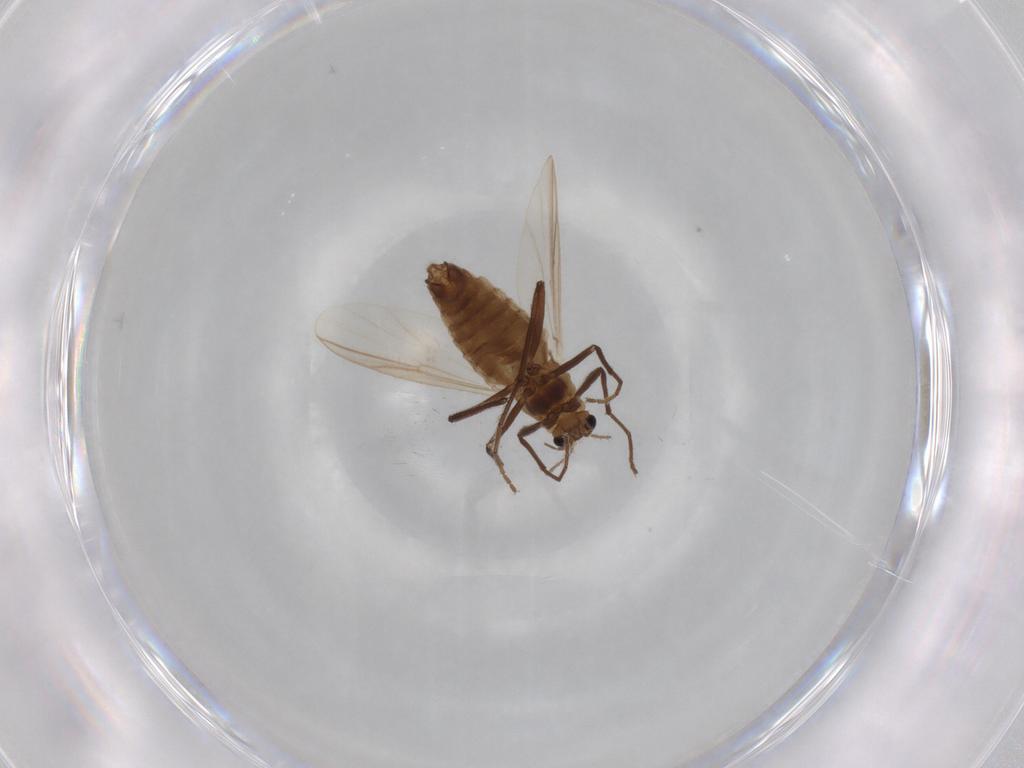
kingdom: Animalia
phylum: Arthropoda
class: Insecta
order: Diptera
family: Chironomidae
